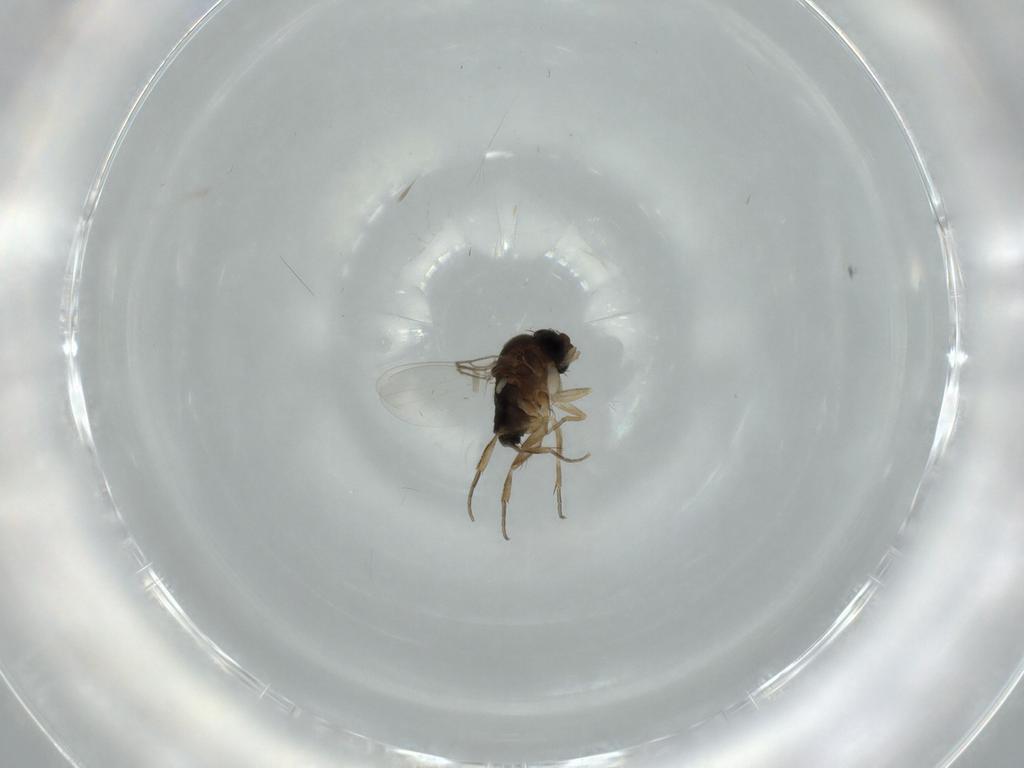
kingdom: Animalia
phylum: Arthropoda
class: Insecta
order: Diptera
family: Phoridae
